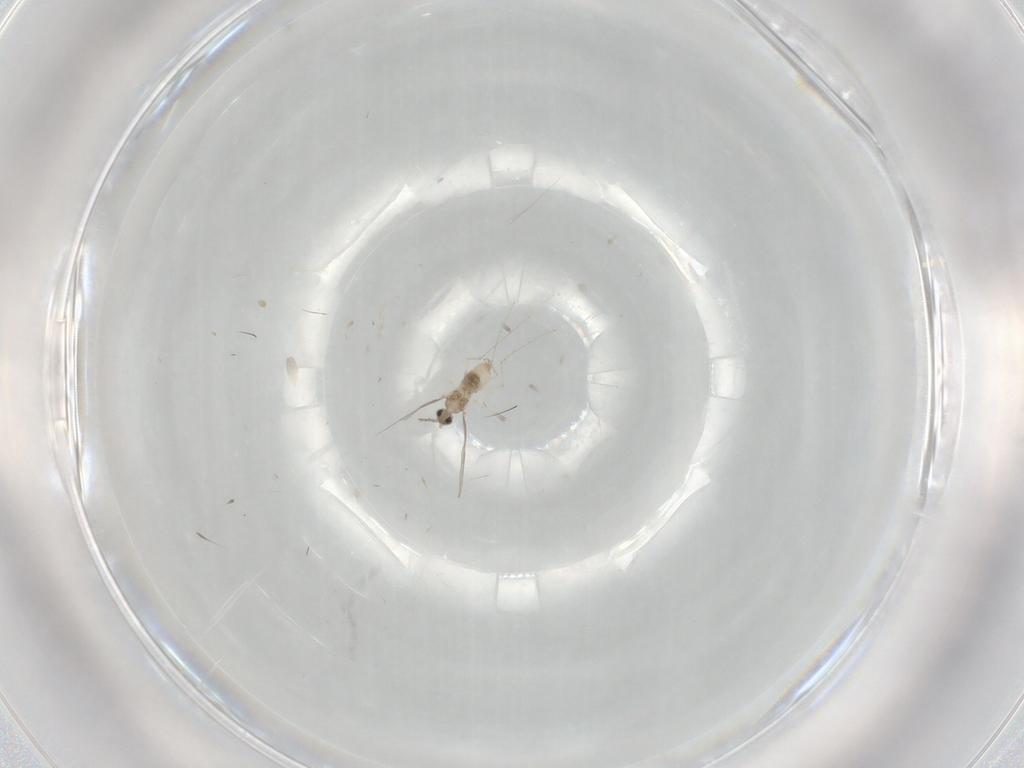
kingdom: Animalia
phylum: Arthropoda
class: Insecta
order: Diptera
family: Cecidomyiidae
